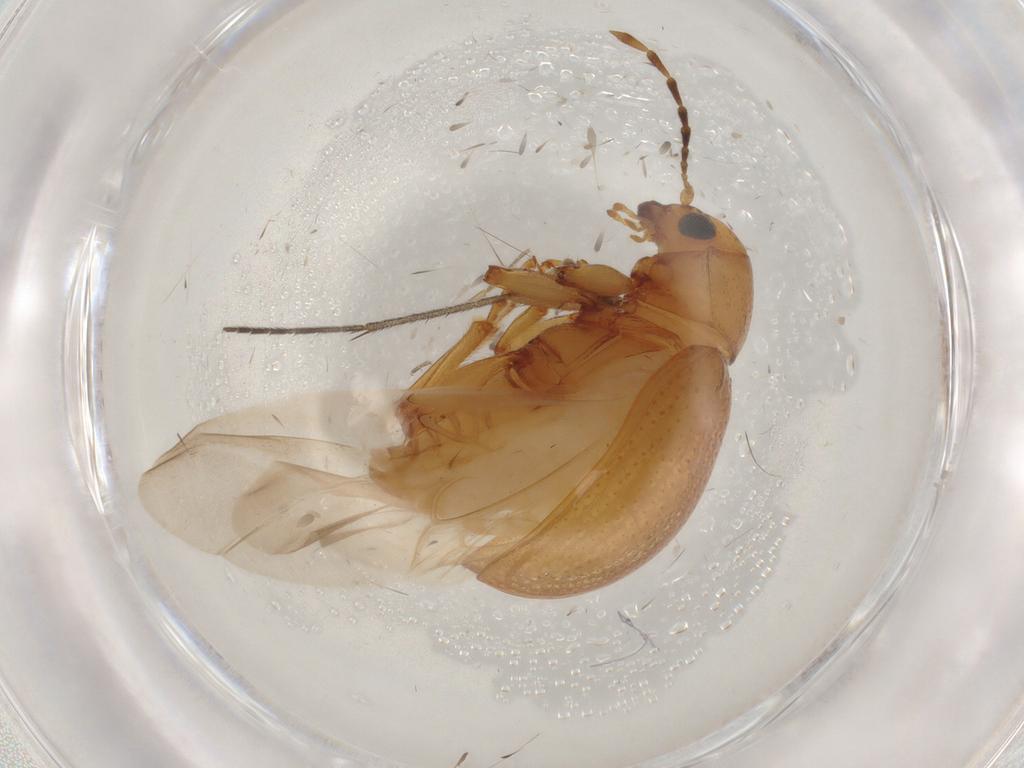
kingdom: Animalia
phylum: Arthropoda
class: Insecta
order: Coleoptera
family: Chrysomelidae
